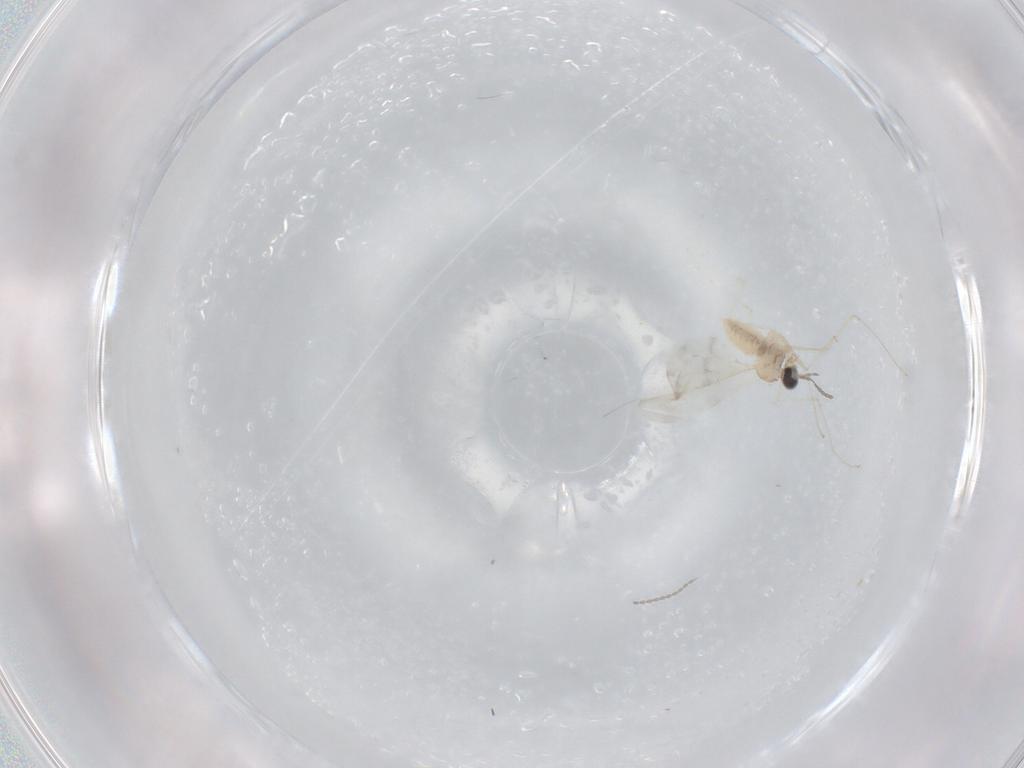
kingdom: Animalia
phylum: Arthropoda
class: Insecta
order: Diptera
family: Cecidomyiidae
